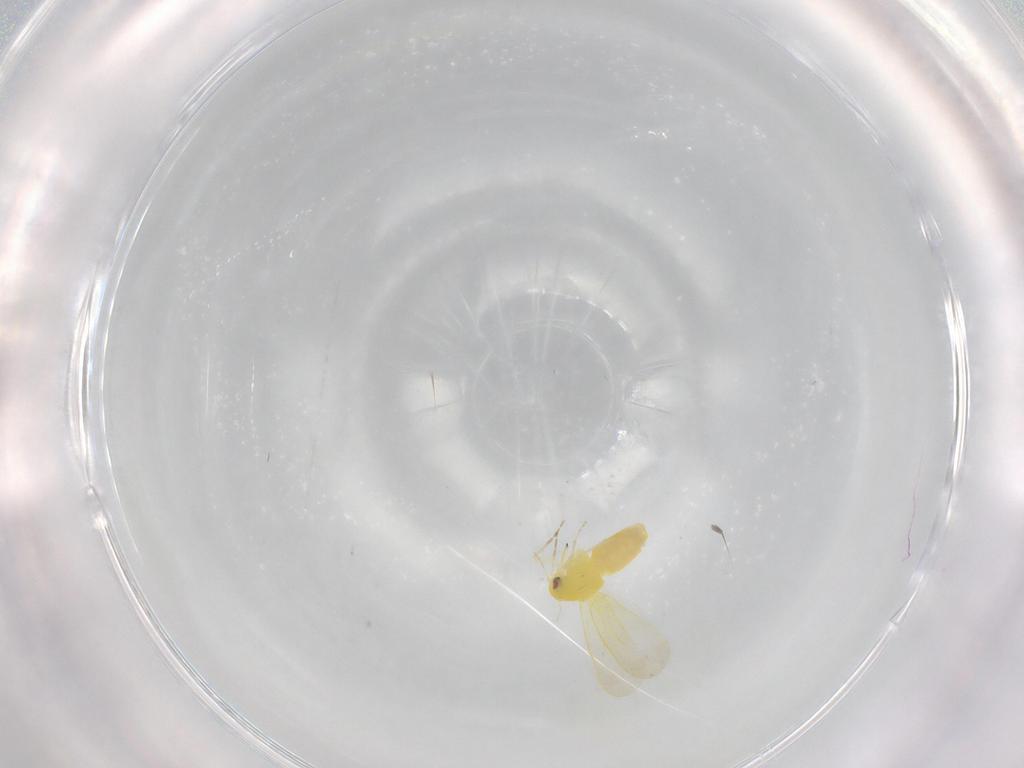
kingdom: Animalia
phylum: Arthropoda
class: Insecta
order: Hemiptera
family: Aleyrodidae
